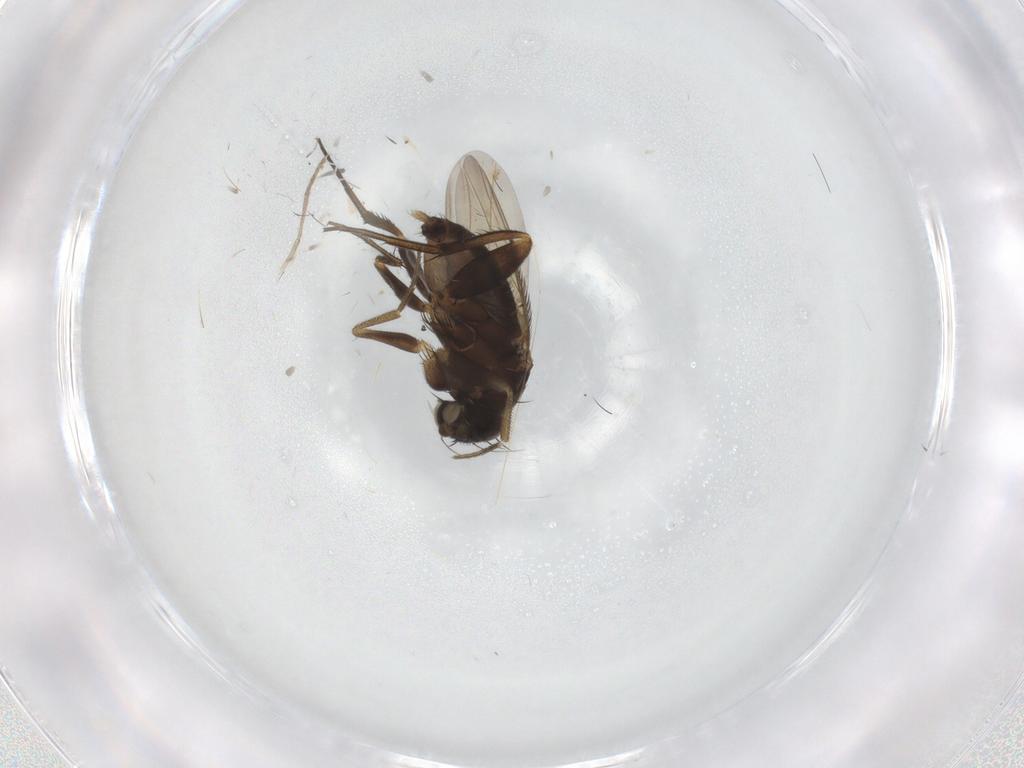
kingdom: Animalia
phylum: Arthropoda
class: Insecta
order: Diptera
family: Phoridae
